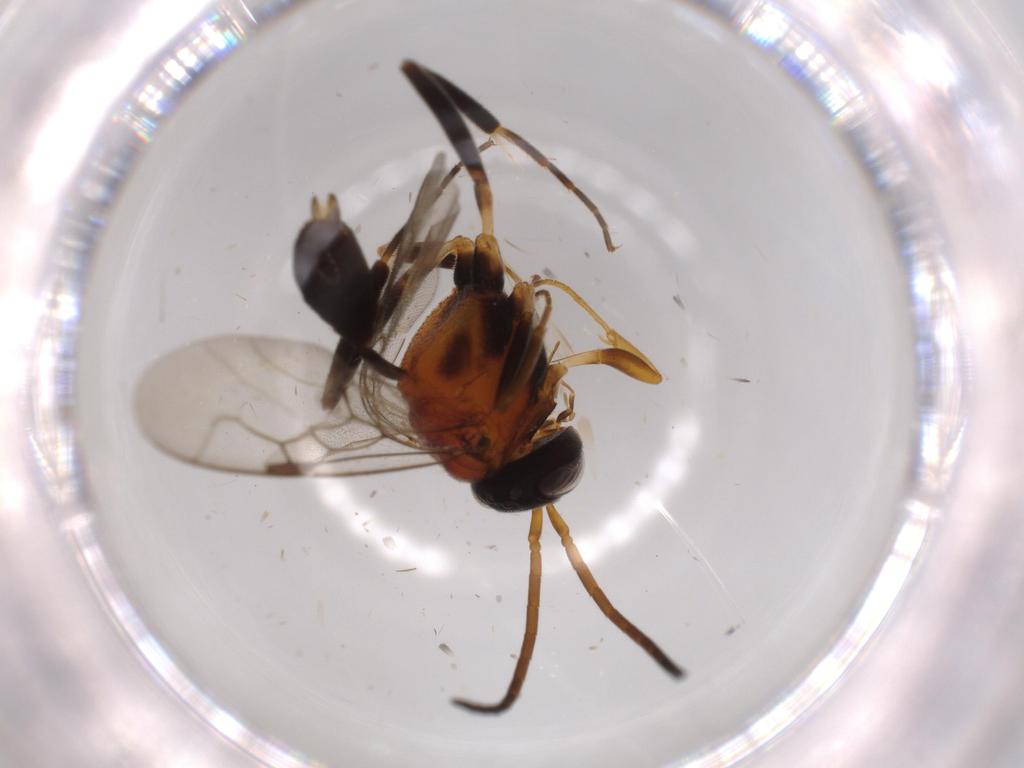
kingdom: Animalia
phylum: Arthropoda
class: Insecta
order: Hymenoptera
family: Evaniidae
